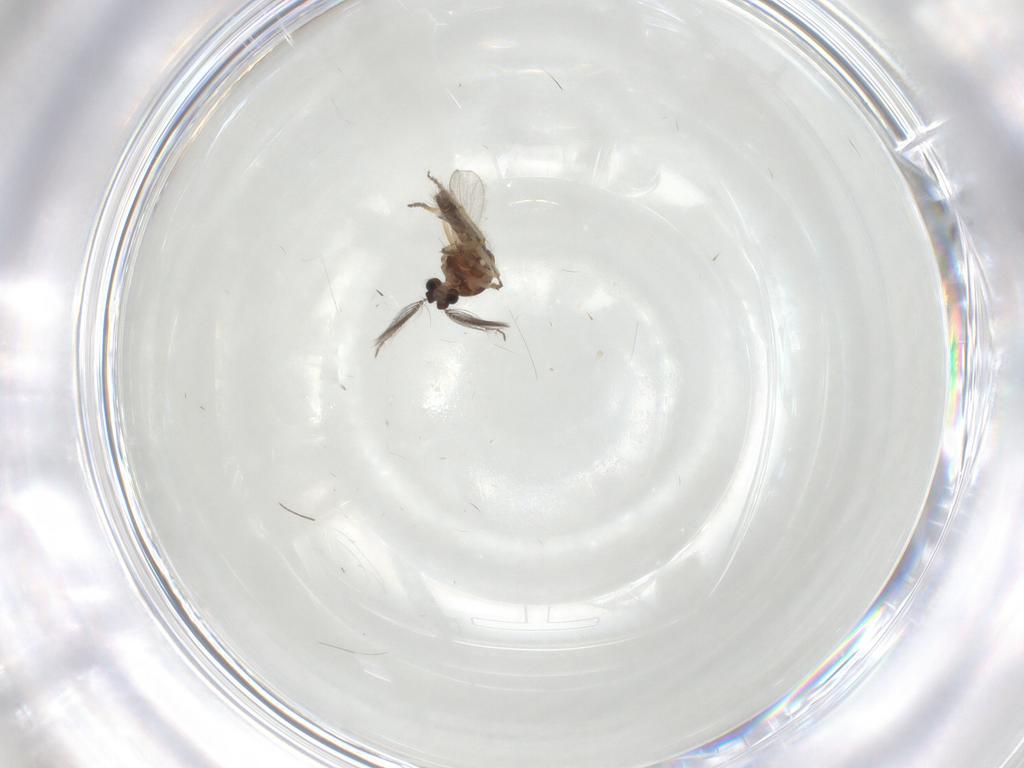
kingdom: Animalia
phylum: Arthropoda
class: Insecta
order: Diptera
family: Ceratopogonidae
